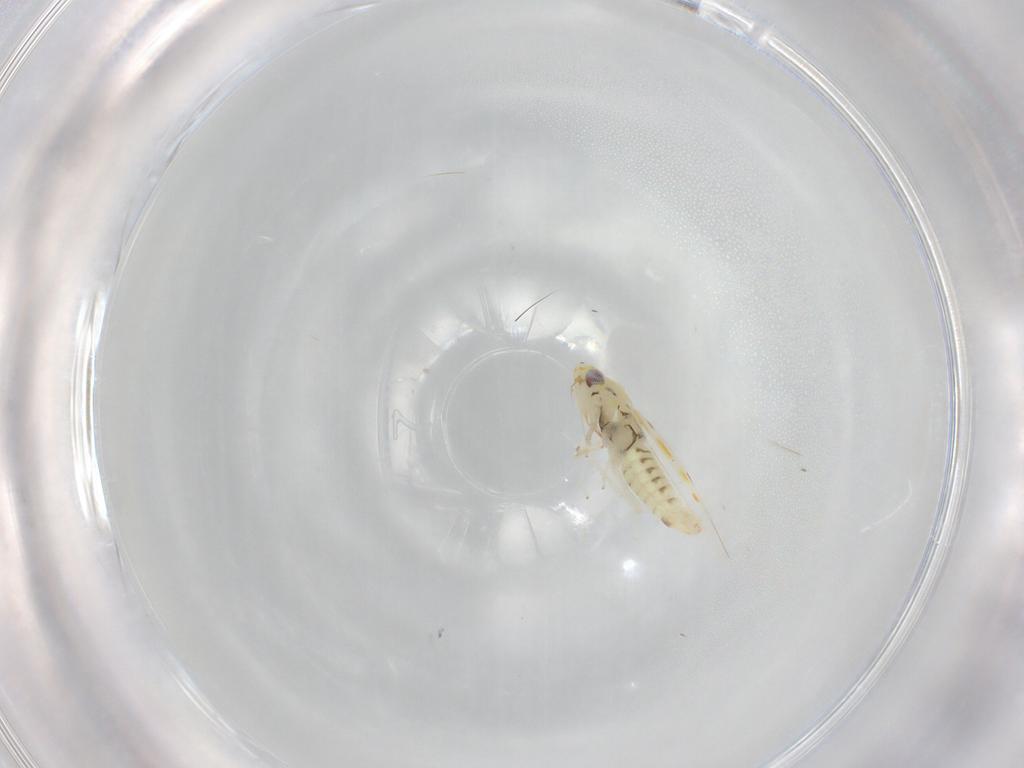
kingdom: Animalia
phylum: Arthropoda
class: Insecta
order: Hemiptera
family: Cicadellidae
